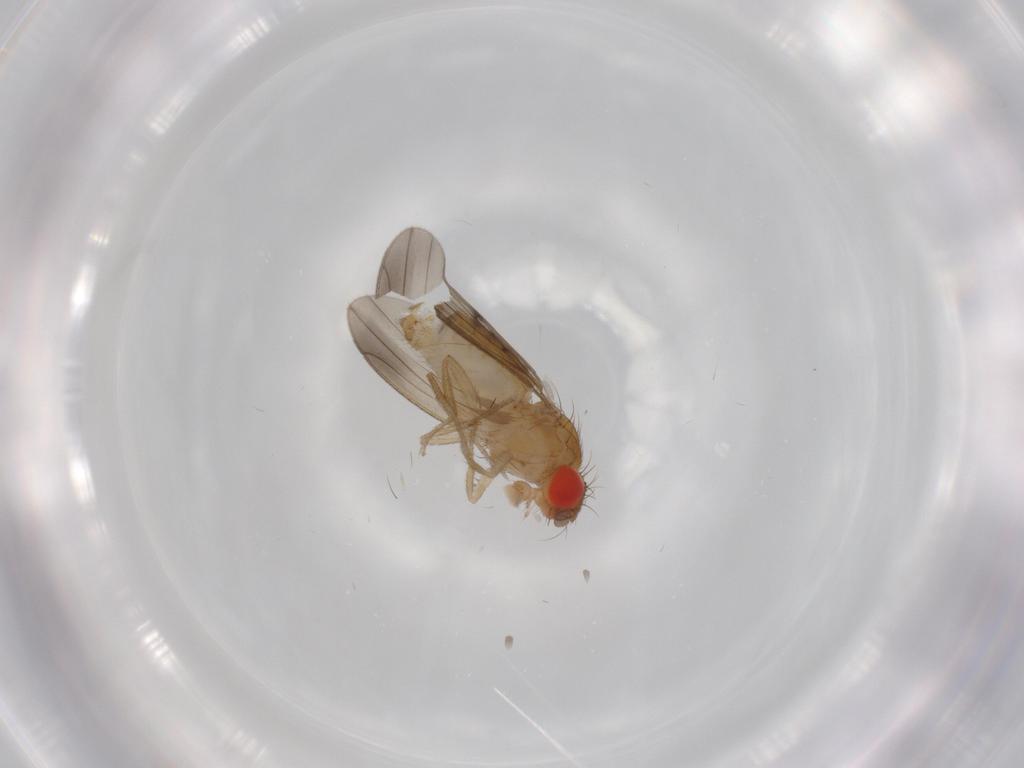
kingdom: Animalia
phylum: Arthropoda
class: Insecta
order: Diptera
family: Drosophilidae
